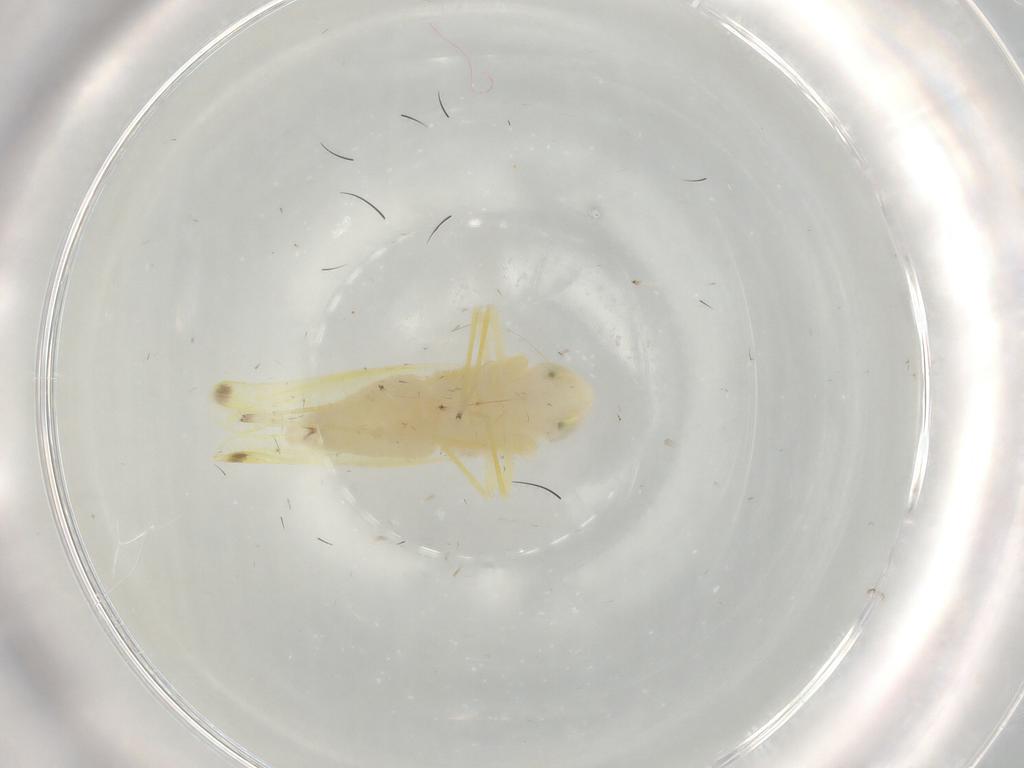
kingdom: Animalia
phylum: Arthropoda
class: Insecta
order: Hemiptera
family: Cicadellidae
